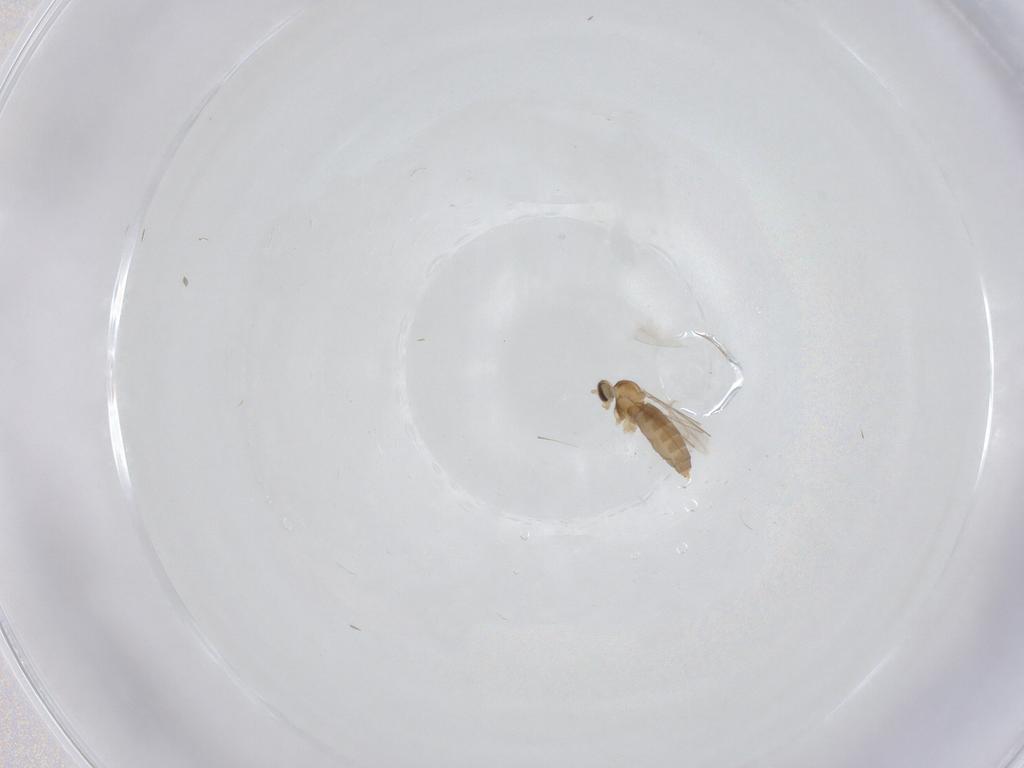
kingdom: Animalia
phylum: Arthropoda
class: Insecta
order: Diptera
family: Cecidomyiidae
